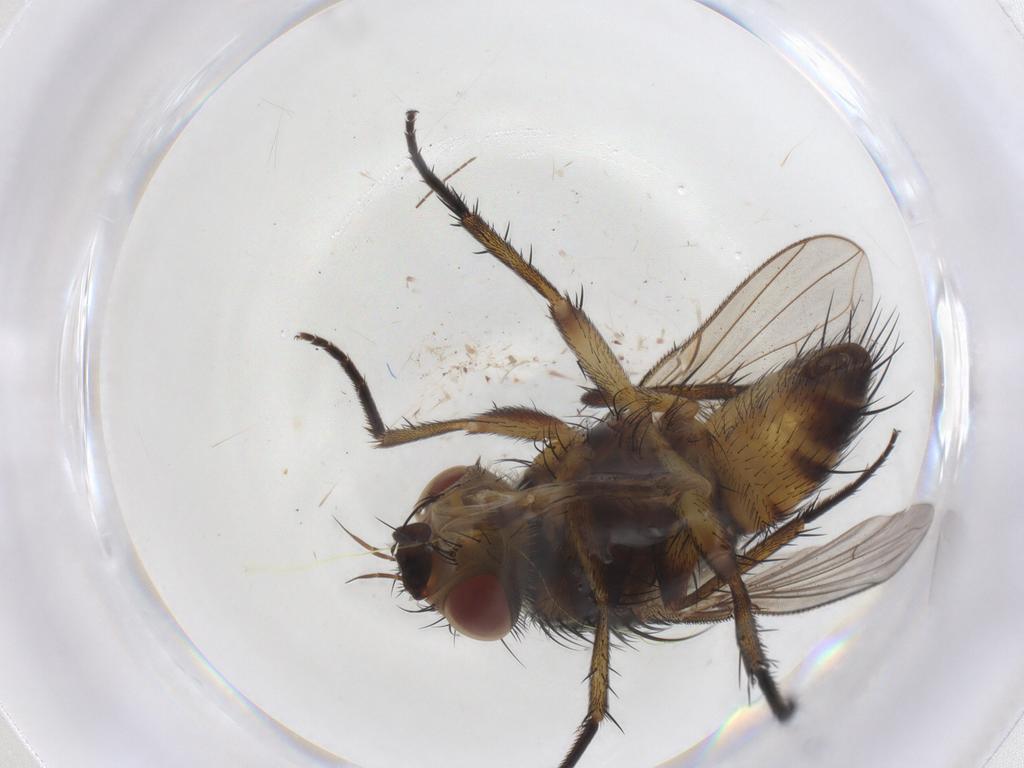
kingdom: Animalia
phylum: Arthropoda
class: Insecta
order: Diptera
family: Tachinidae
